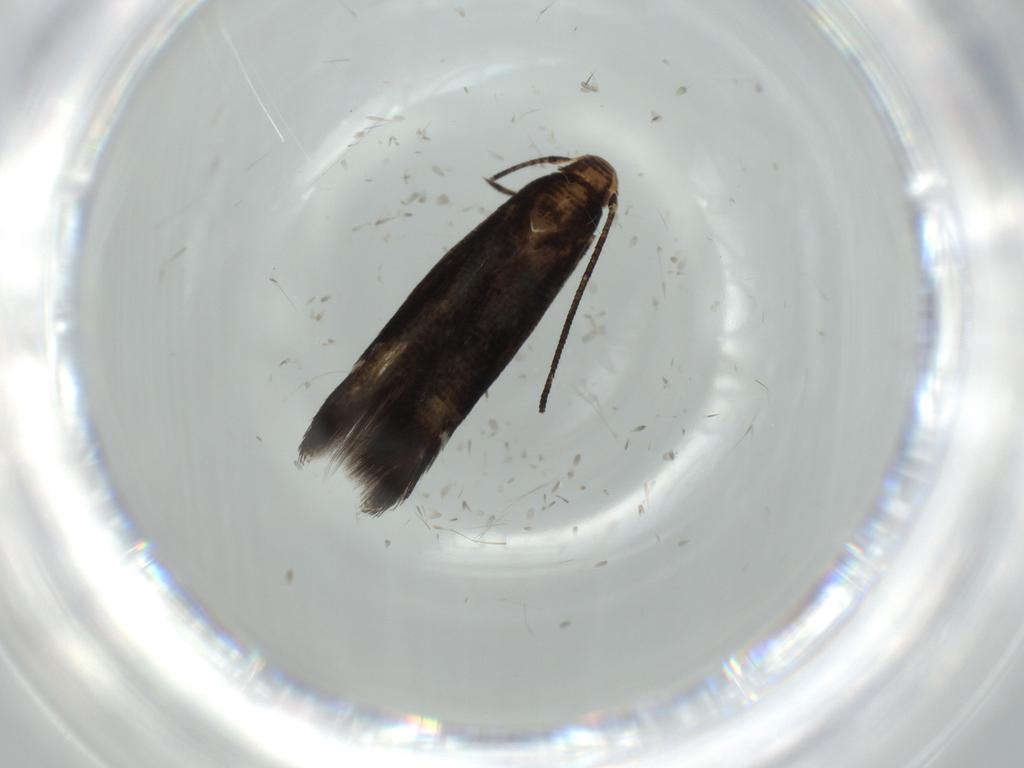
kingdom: Animalia
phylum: Arthropoda
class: Insecta
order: Lepidoptera
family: Momphidae
